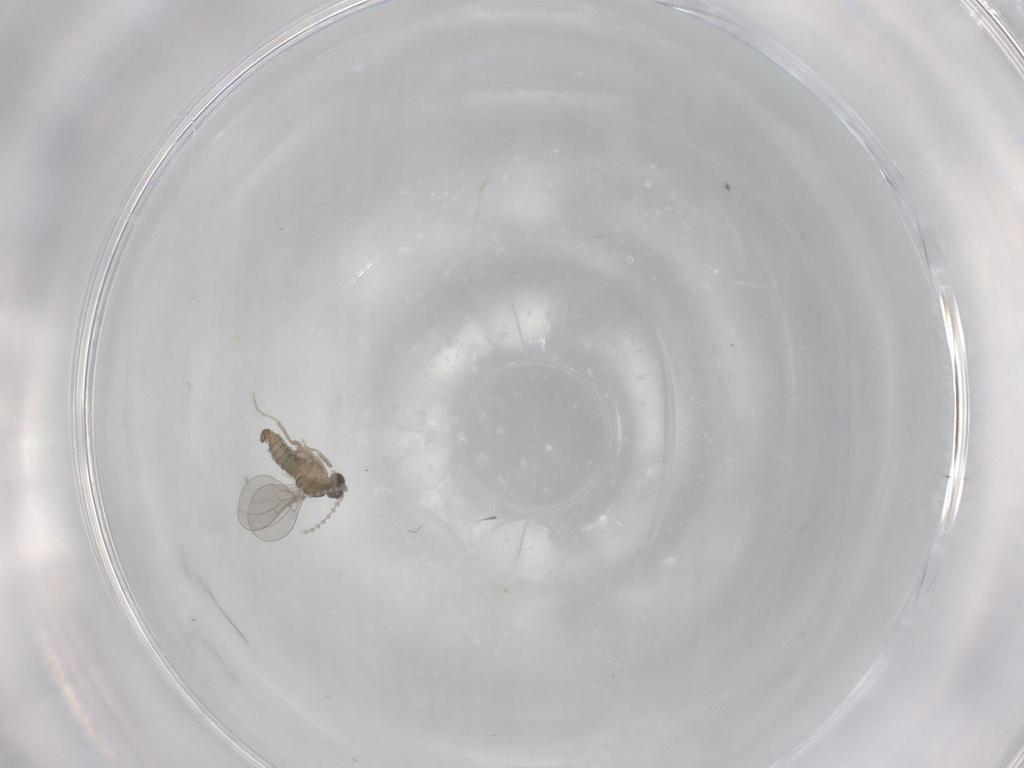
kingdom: Animalia
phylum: Arthropoda
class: Insecta
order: Diptera
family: Cecidomyiidae
